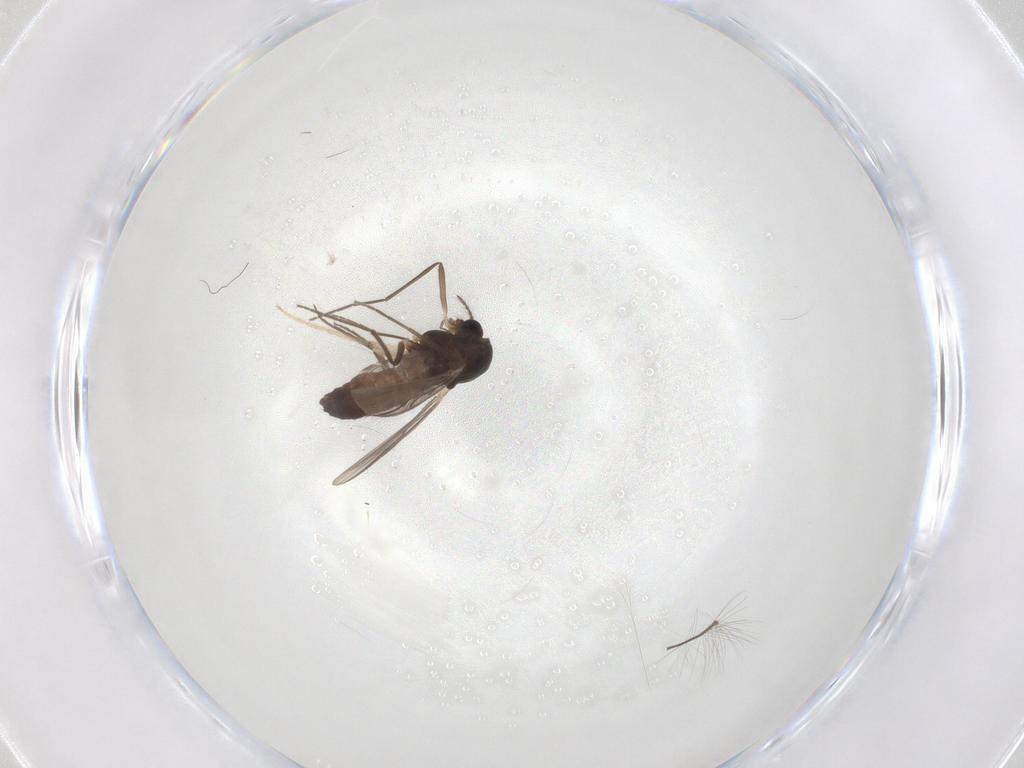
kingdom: Animalia
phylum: Arthropoda
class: Insecta
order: Diptera
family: Chironomidae
